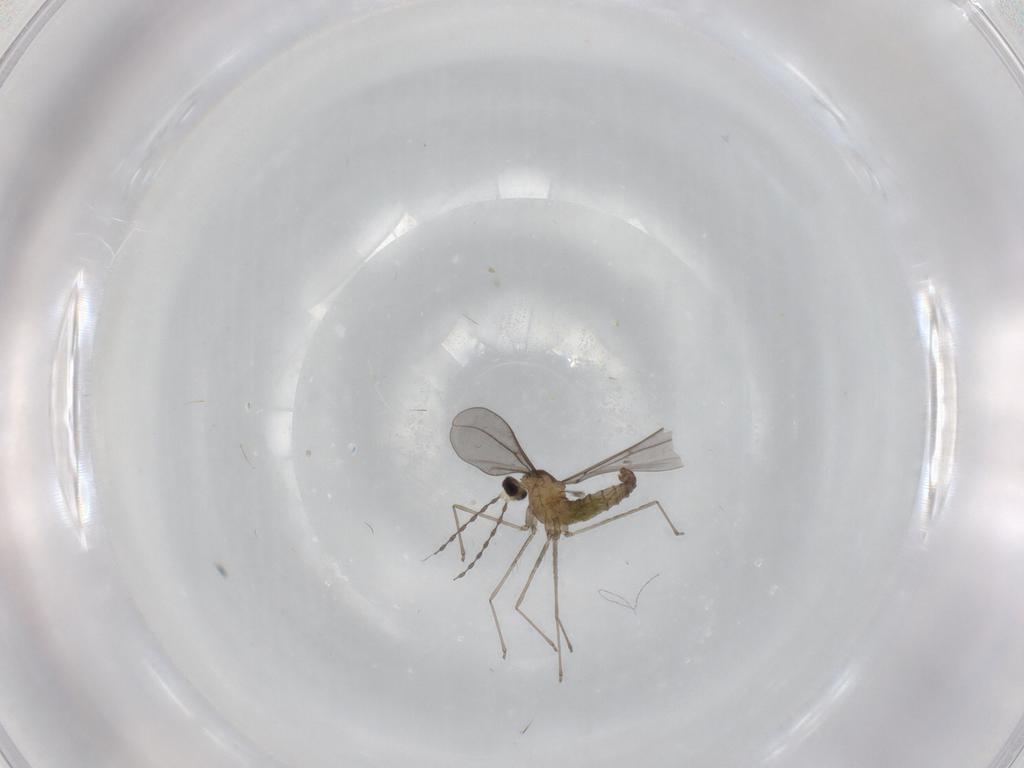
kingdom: Animalia
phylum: Arthropoda
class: Insecta
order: Diptera
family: Cecidomyiidae
